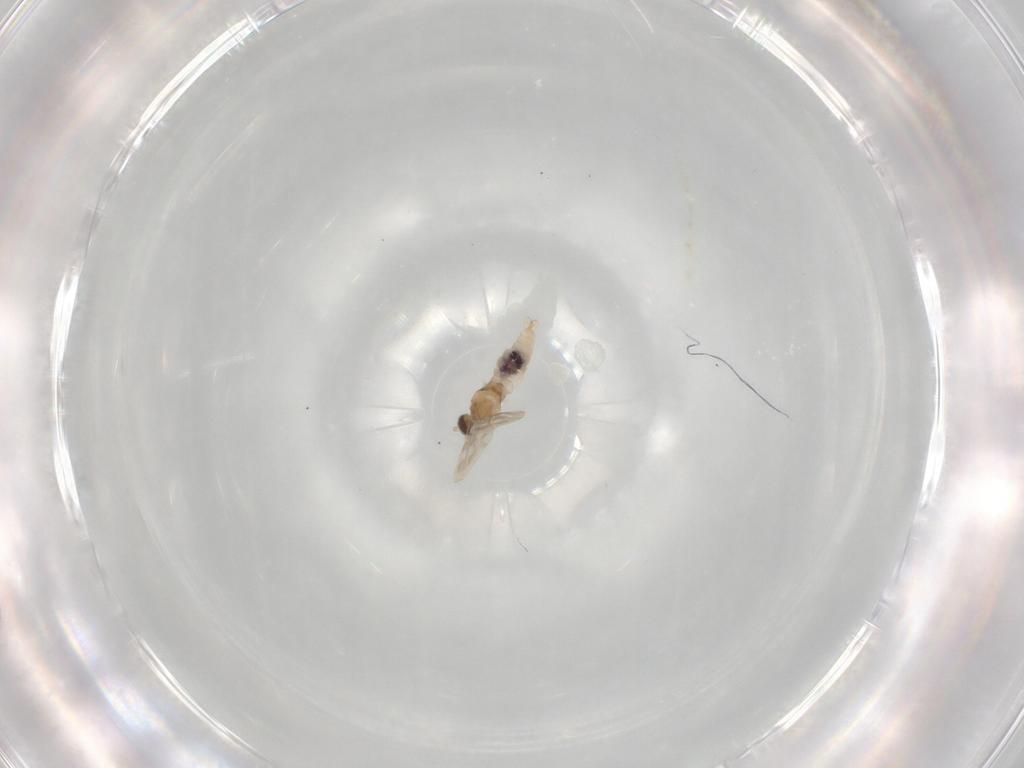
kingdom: Animalia
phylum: Arthropoda
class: Insecta
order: Diptera
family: Cecidomyiidae
